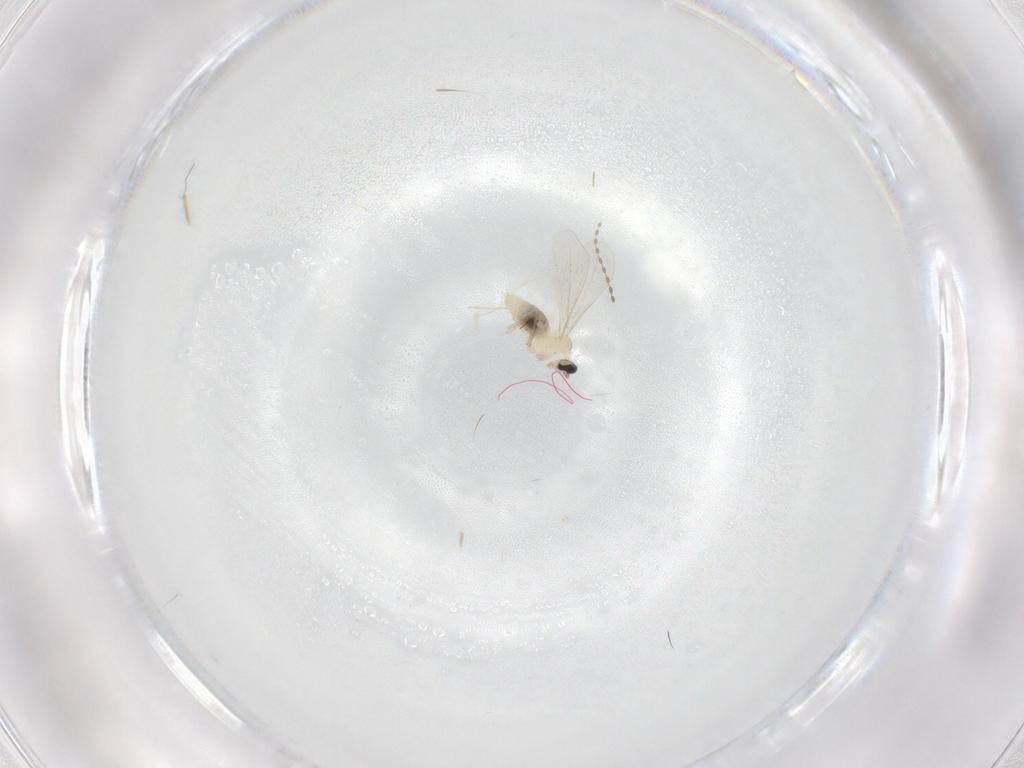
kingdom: Animalia
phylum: Arthropoda
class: Insecta
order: Diptera
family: Cecidomyiidae
